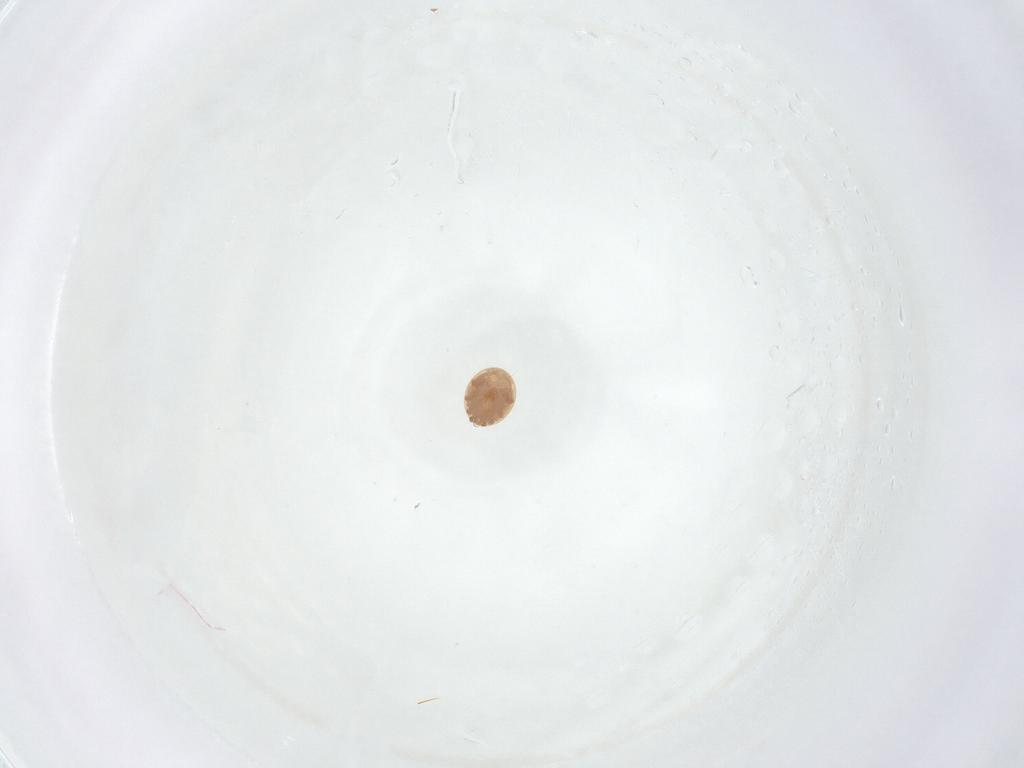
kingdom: Animalia
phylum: Arthropoda
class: Arachnida
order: Mesostigmata
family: Trematuridae
